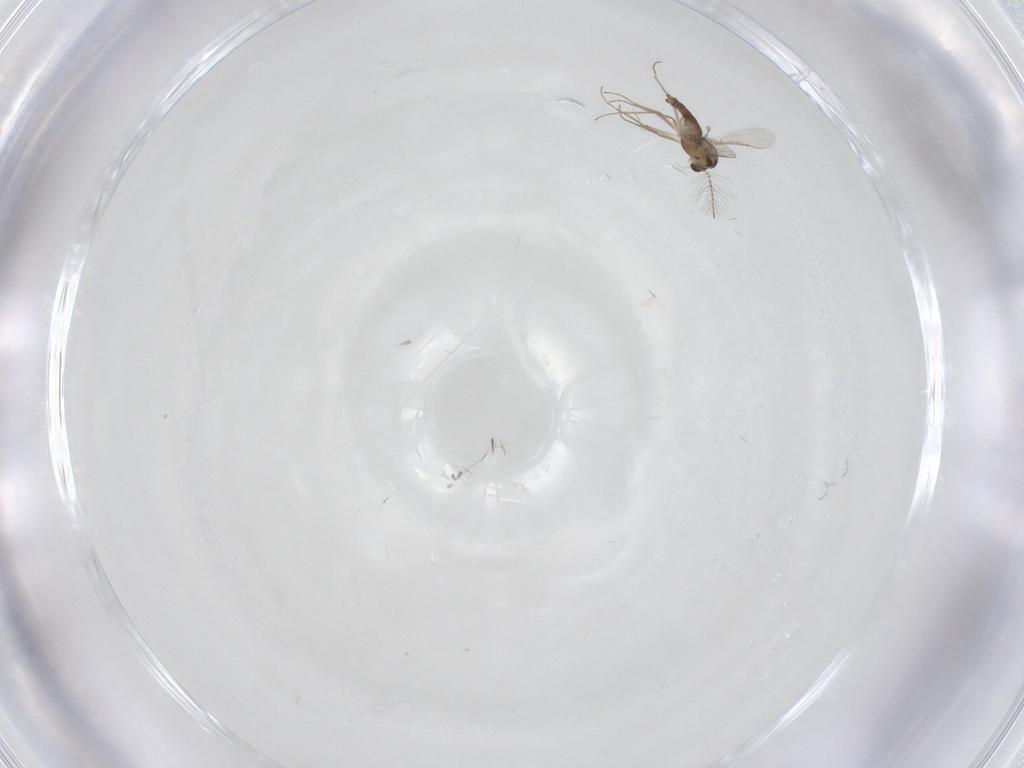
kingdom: Animalia
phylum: Arthropoda
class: Insecta
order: Diptera
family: Chironomidae
